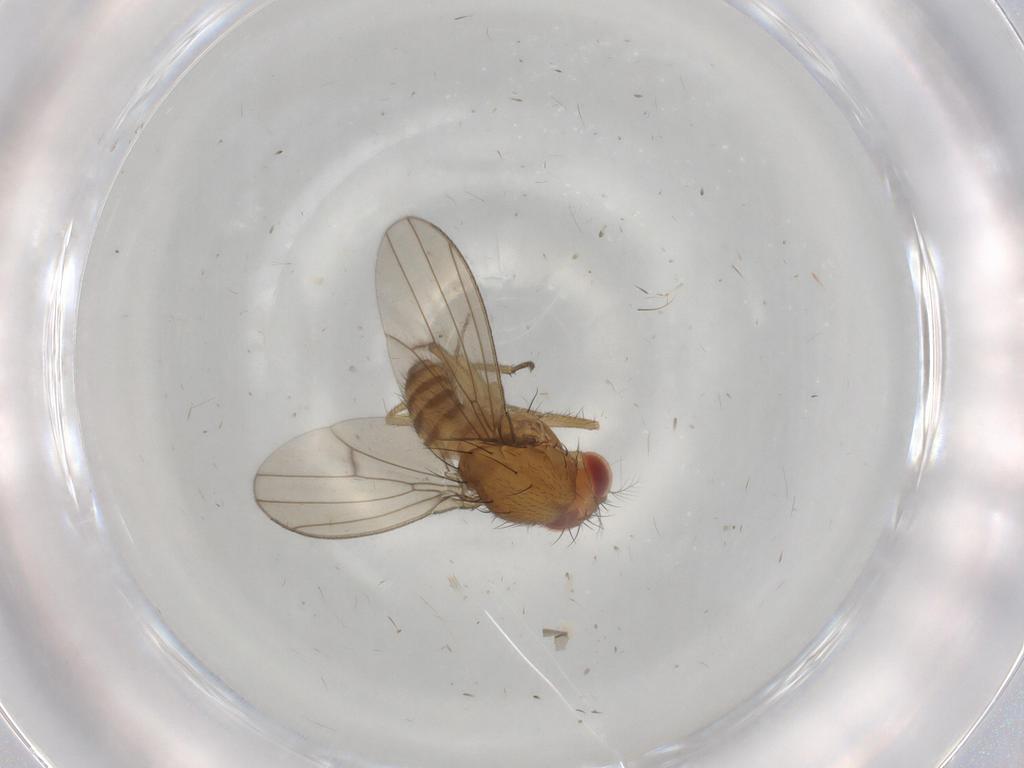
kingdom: Animalia
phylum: Arthropoda
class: Insecta
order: Diptera
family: Drosophilidae
